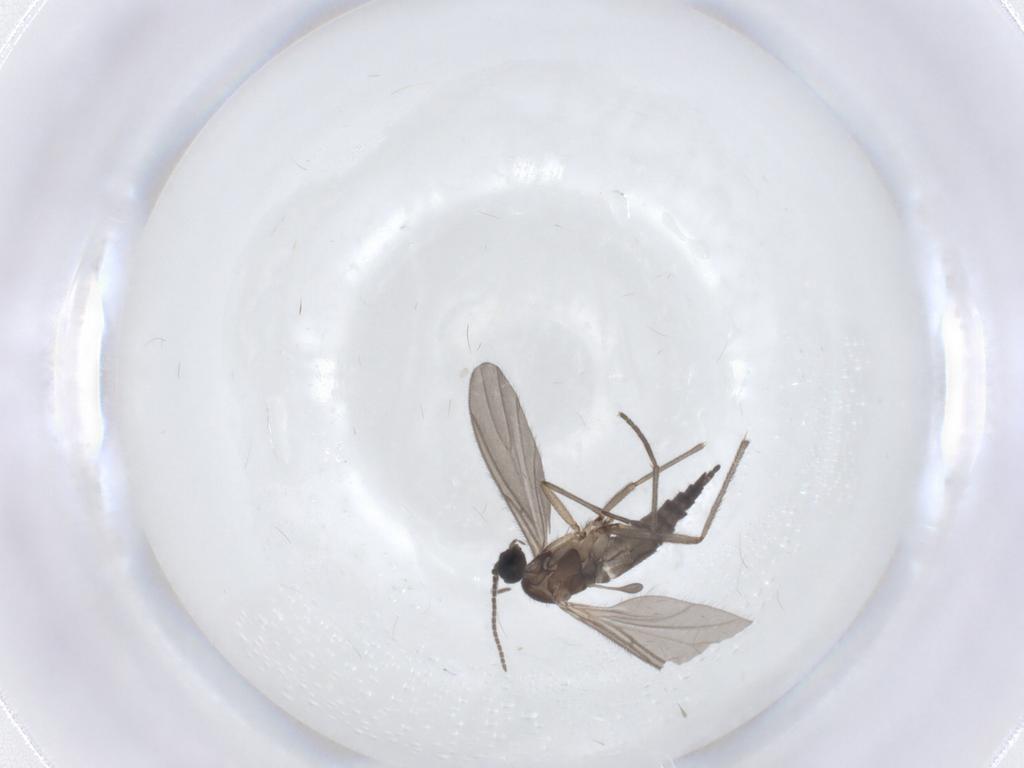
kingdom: Animalia
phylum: Arthropoda
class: Insecta
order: Diptera
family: Sciaridae
